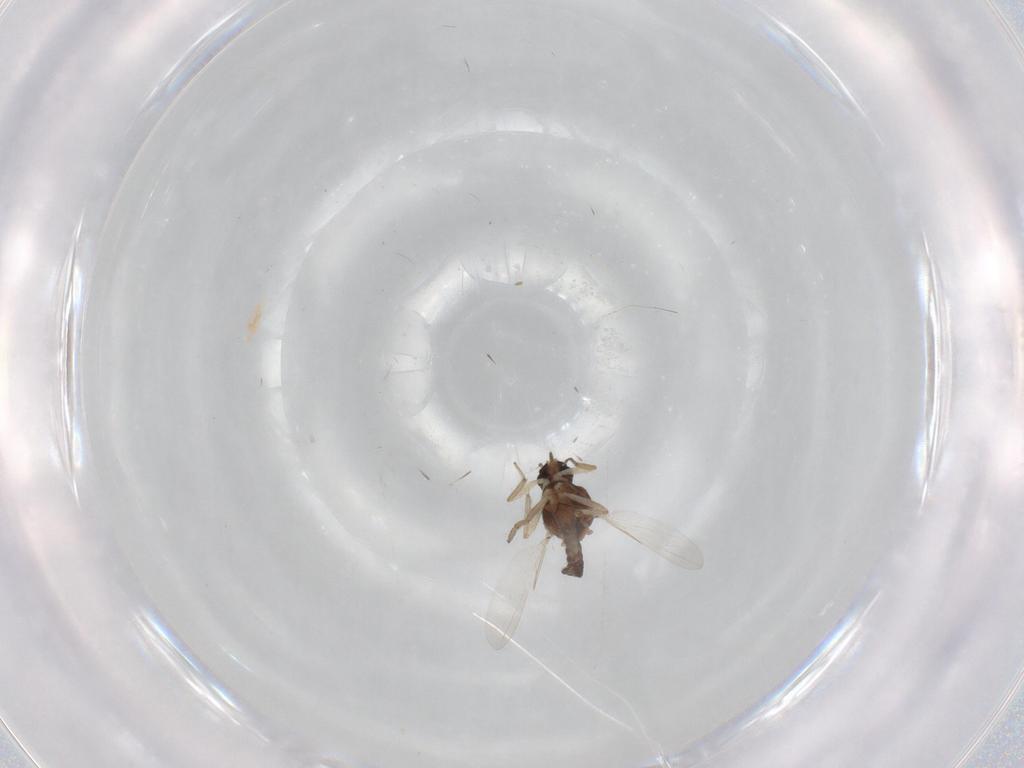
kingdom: Animalia
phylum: Arthropoda
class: Insecta
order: Diptera
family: Ceratopogonidae
